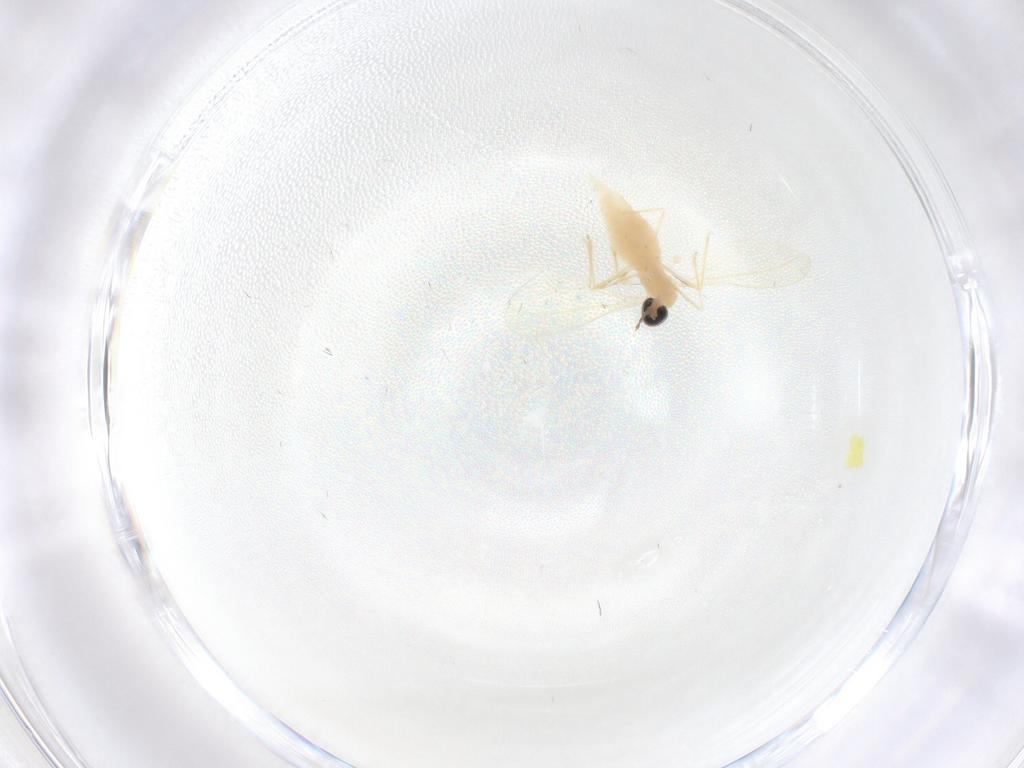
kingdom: Animalia
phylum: Arthropoda
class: Insecta
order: Diptera
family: Cecidomyiidae
